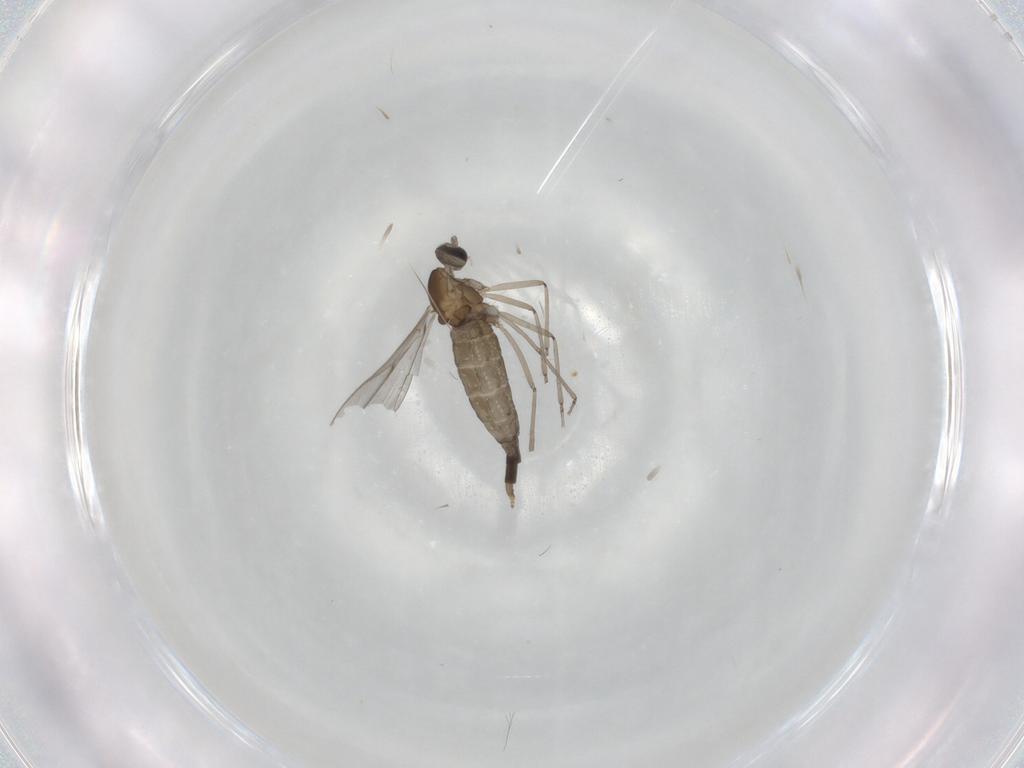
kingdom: Animalia
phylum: Arthropoda
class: Insecta
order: Diptera
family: Cecidomyiidae
